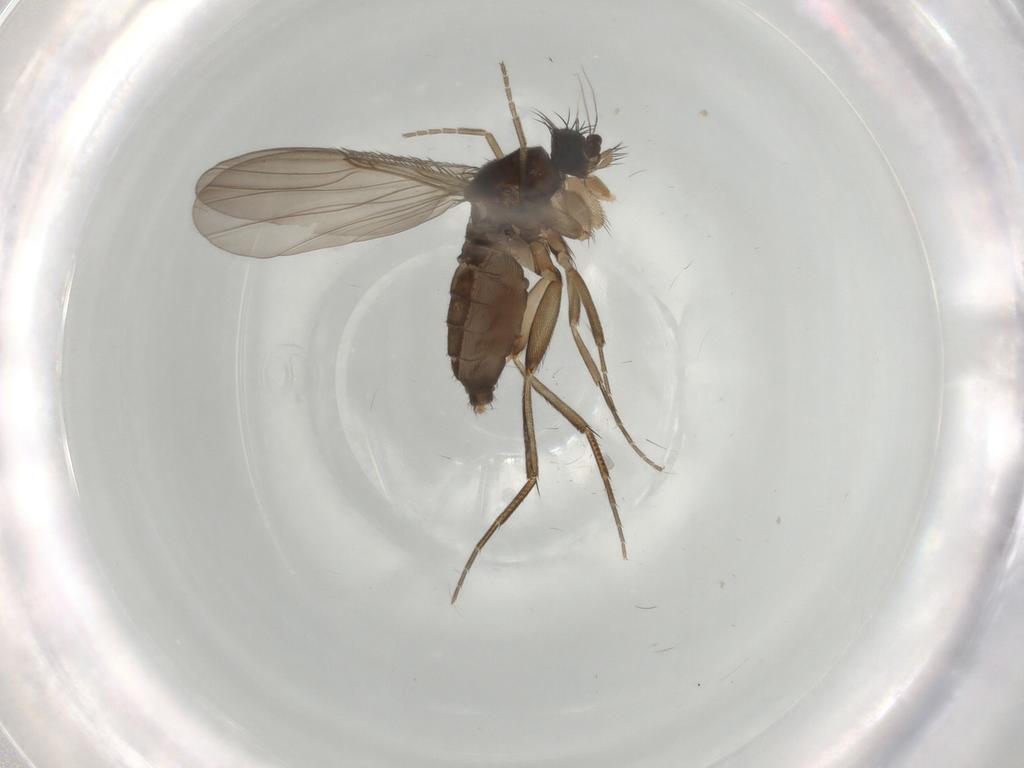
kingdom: Animalia
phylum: Arthropoda
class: Insecta
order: Diptera
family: Phoridae
